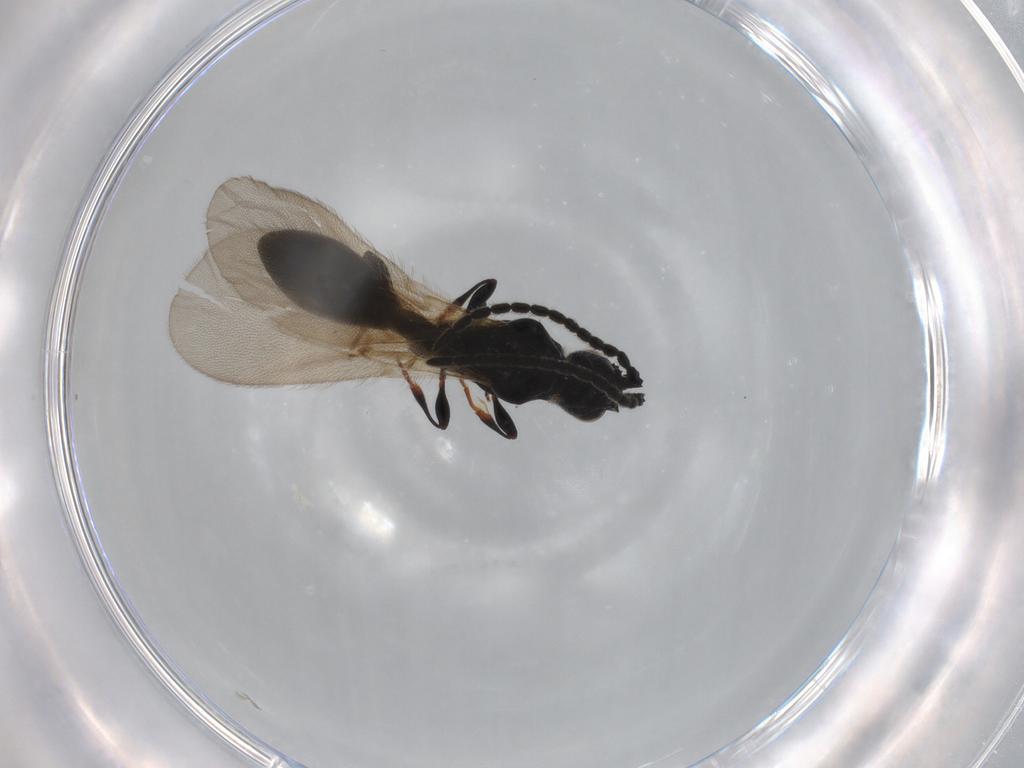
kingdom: Animalia
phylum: Arthropoda
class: Insecta
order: Hymenoptera
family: Diapriidae
